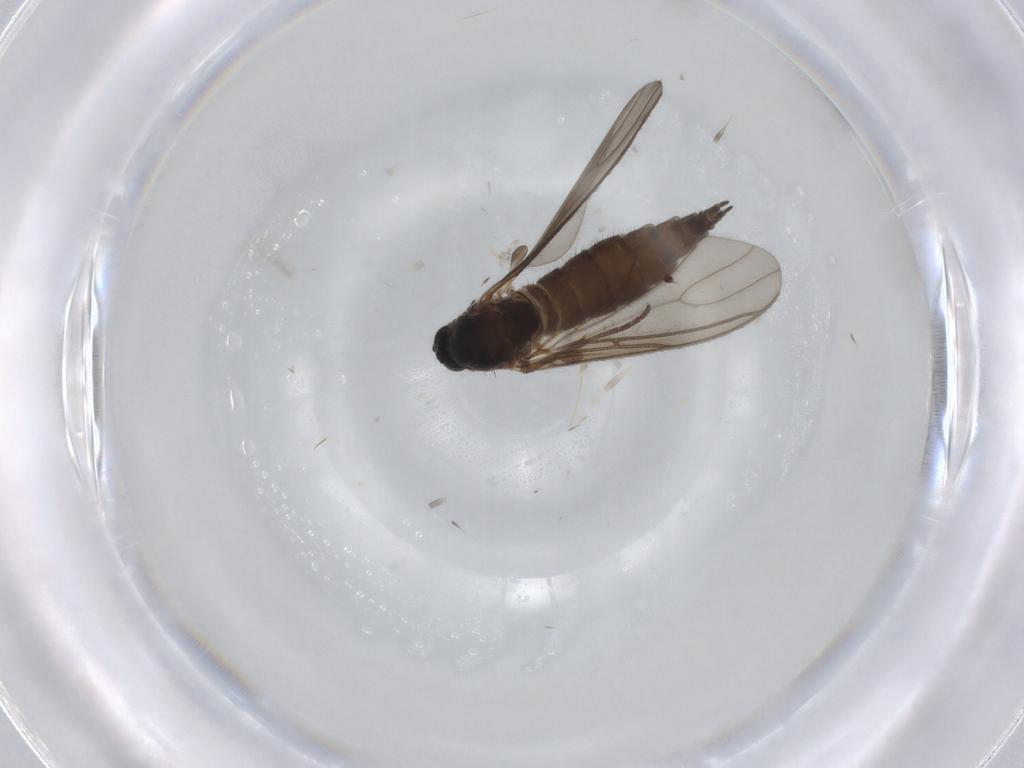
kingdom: Animalia
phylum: Arthropoda
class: Insecta
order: Diptera
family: Sciaridae
